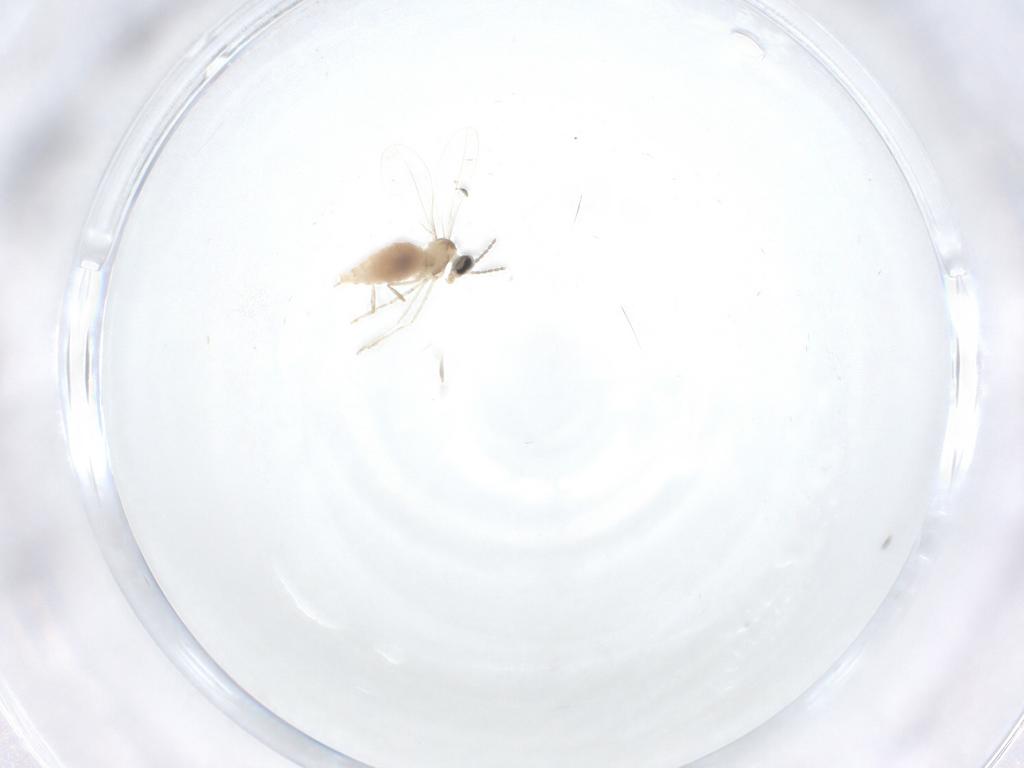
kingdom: Animalia
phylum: Arthropoda
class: Insecta
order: Diptera
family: Cecidomyiidae
